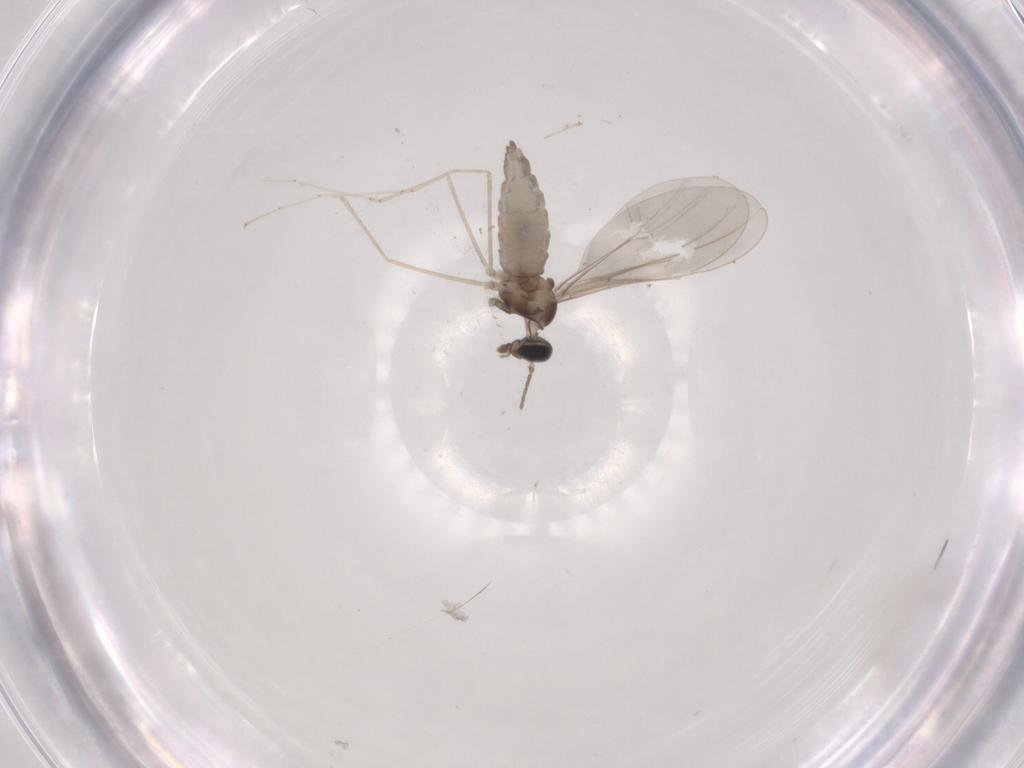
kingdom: Animalia
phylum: Arthropoda
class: Insecta
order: Diptera
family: Cecidomyiidae
